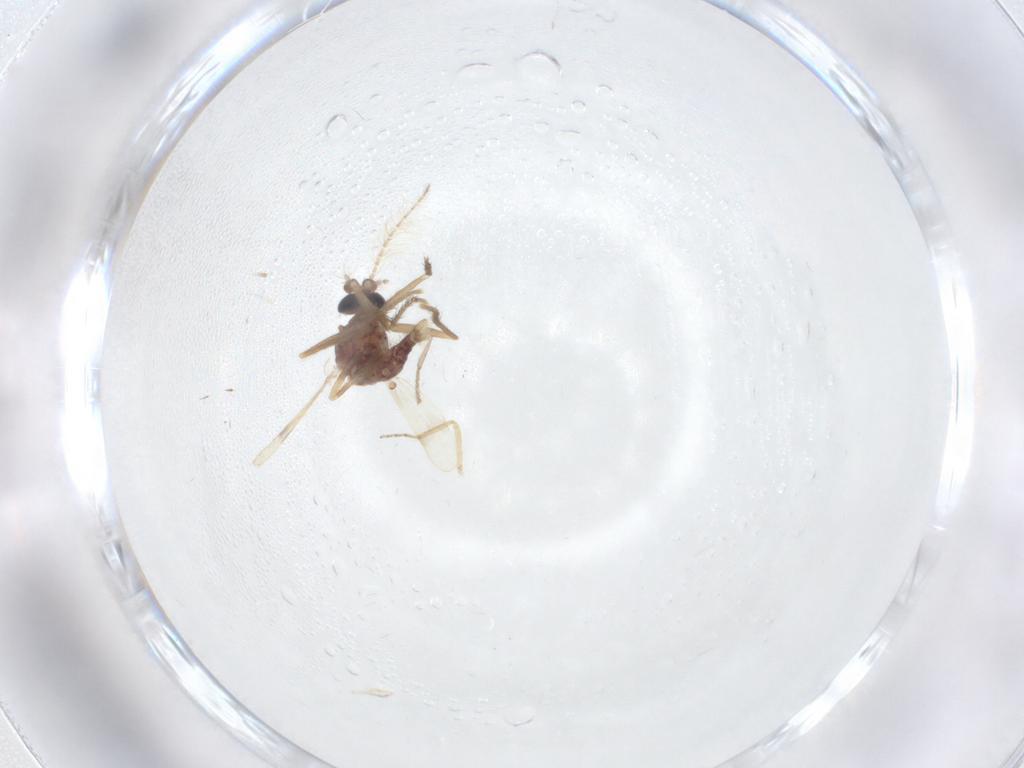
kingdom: Animalia
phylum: Arthropoda
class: Insecta
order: Diptera
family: Corethrellidae
